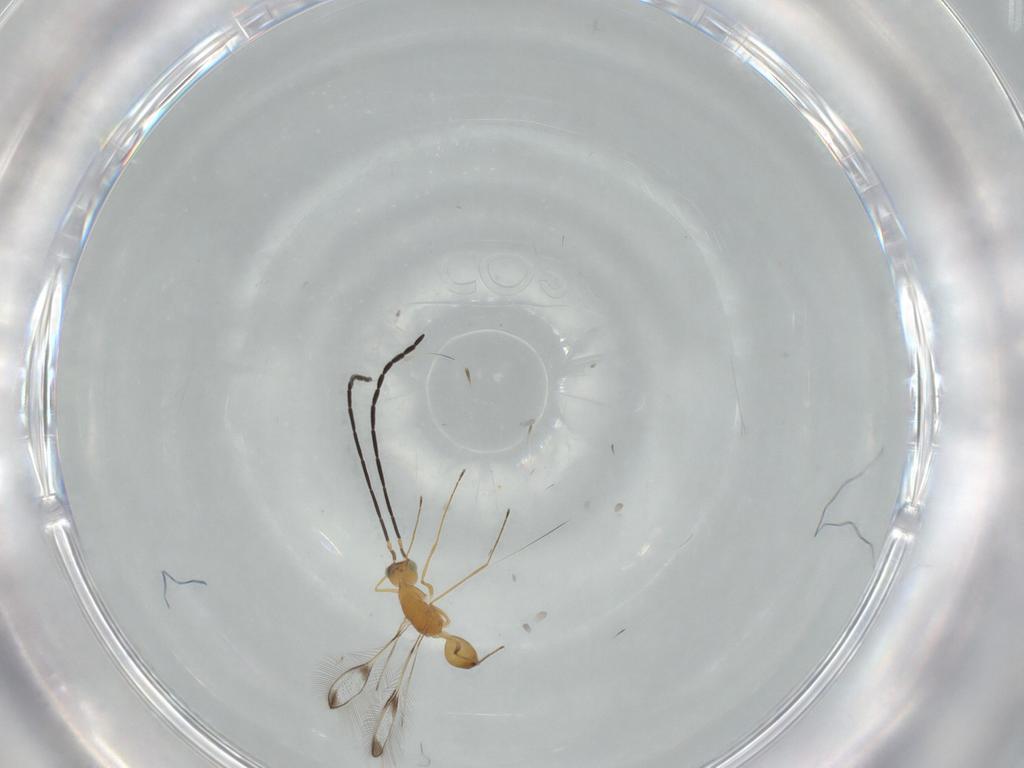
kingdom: Animalia
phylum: Arthropoda
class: Insecta
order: Hymenoptera
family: Mymaridae
